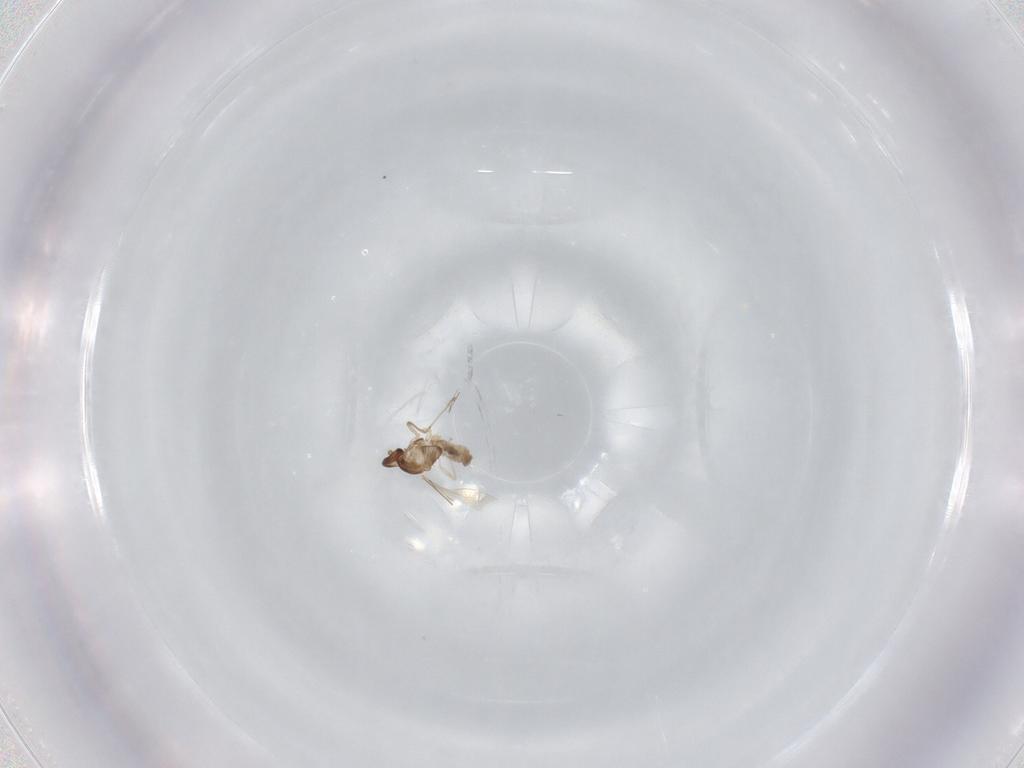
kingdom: Animalia
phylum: Arthropoda
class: Insecta
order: Diptera
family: Cecidomyiidae
